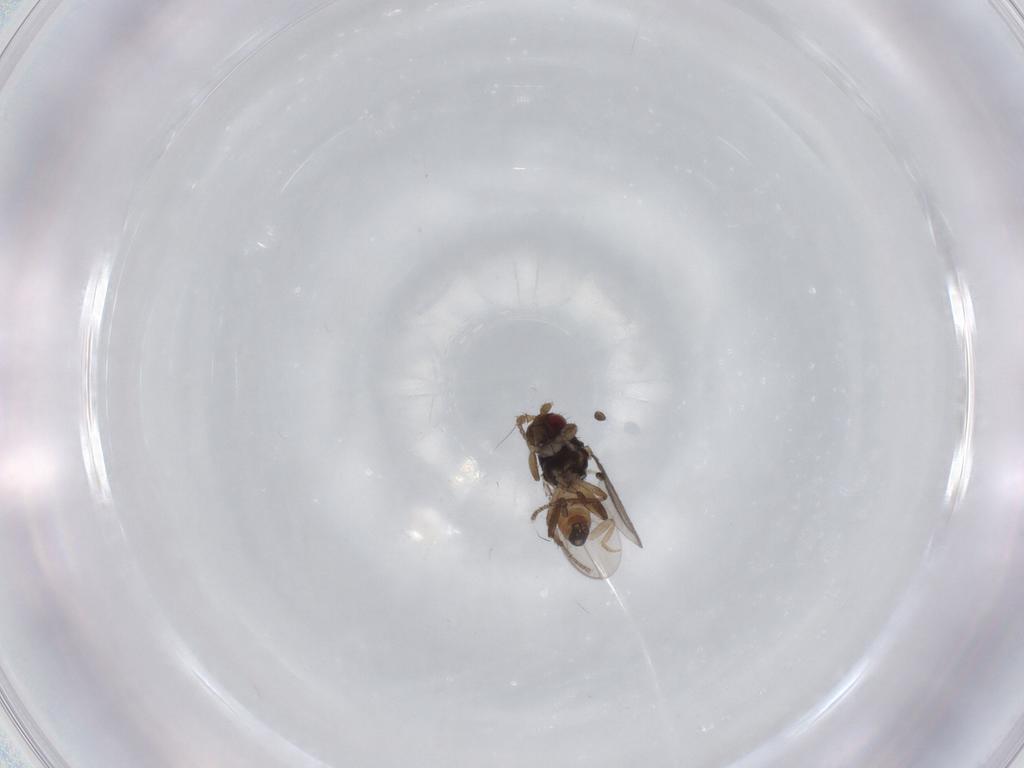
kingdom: Animalia
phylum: Arthropoda
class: Insecta
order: Diptera
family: Sphaeroceridae
